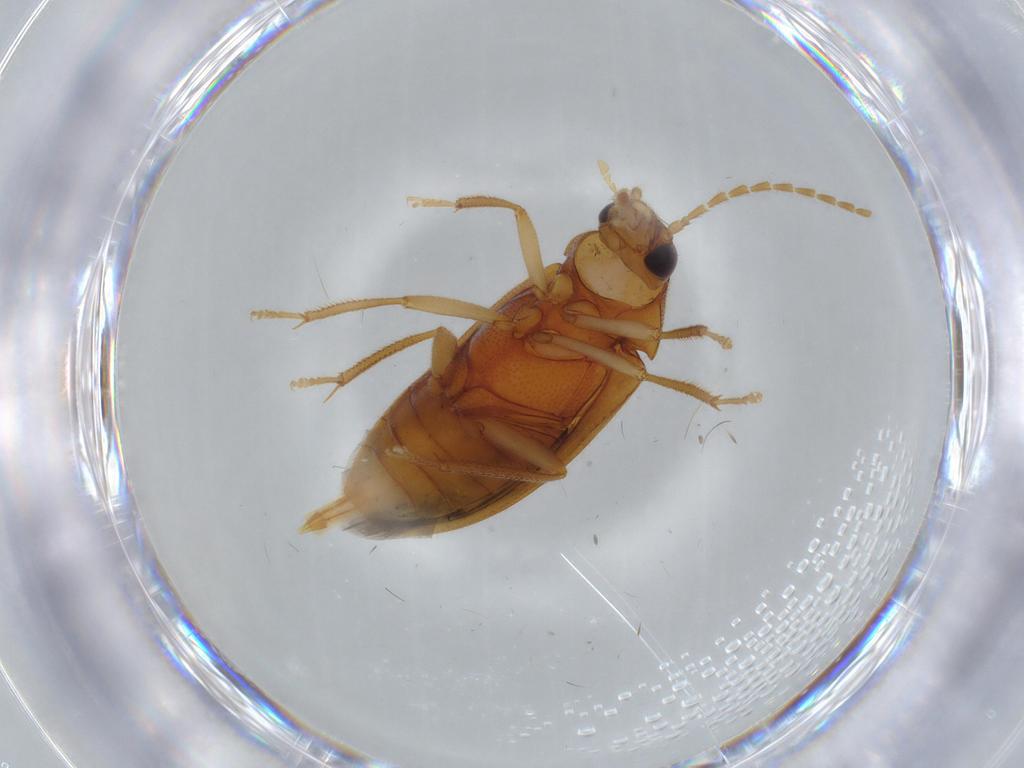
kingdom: Animalia
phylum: Arthropoda
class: Insecta
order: Coleoptera
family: Ptilodactylidae
